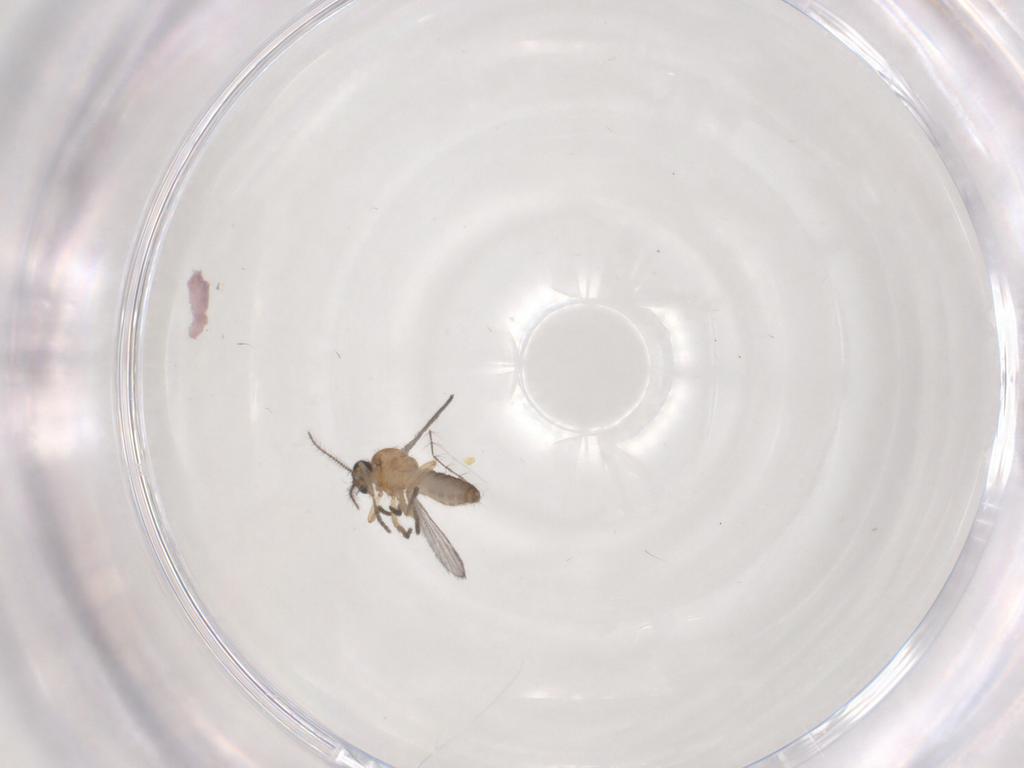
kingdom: Animalia
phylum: Arthropoda
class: Insecta
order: Diptera
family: Ceratopogonidae
